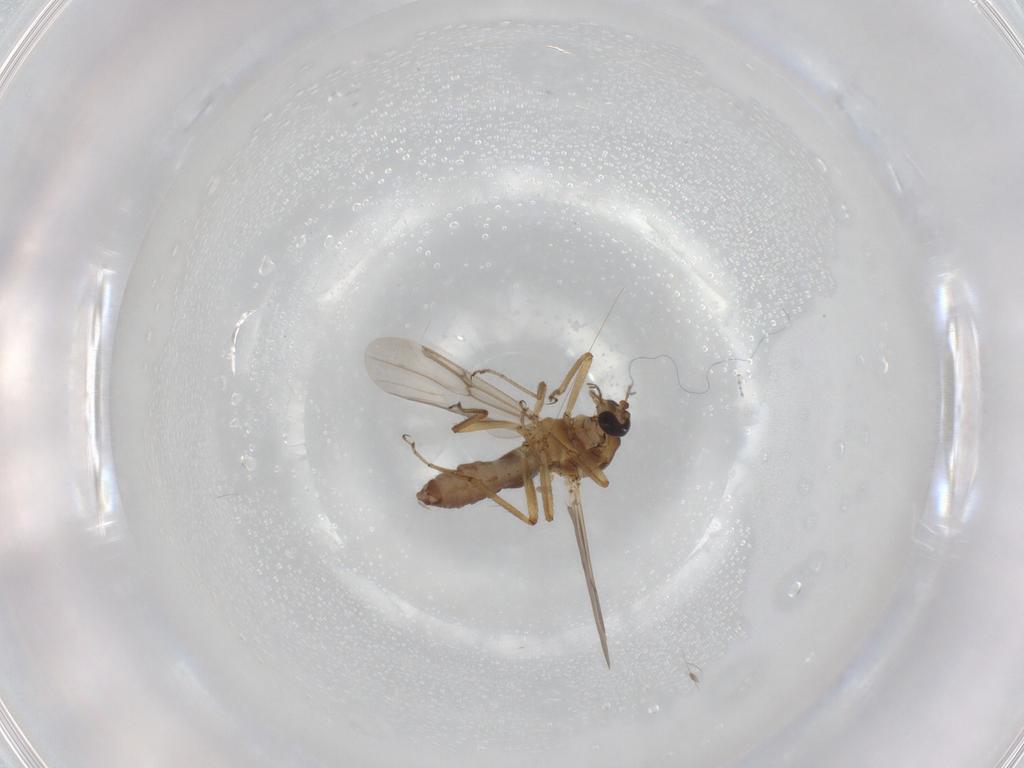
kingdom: Animalia
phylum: Arthropoda
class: Insecta
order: Diptera
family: Ceratopogonidae
